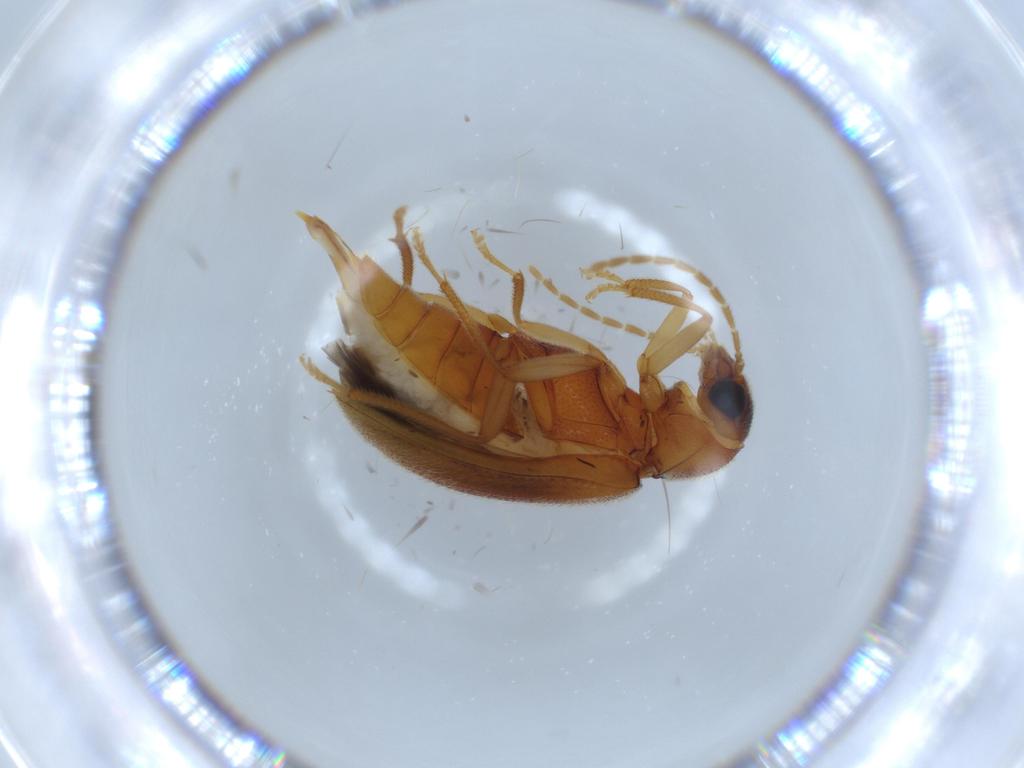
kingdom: Animalia
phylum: Arthropoda
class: Insecta
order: Coleoptera
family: Ptilodactylidae
